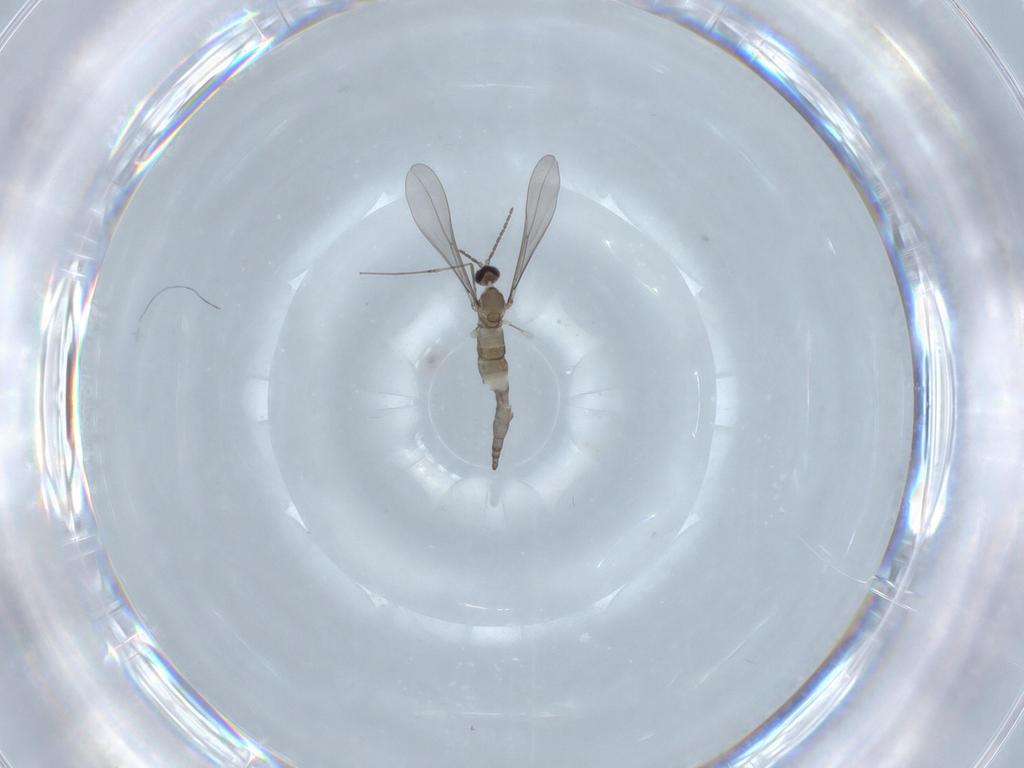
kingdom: Animalia
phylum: Arthropoda
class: Insecta
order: Diptera
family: Cecidomyiidae
